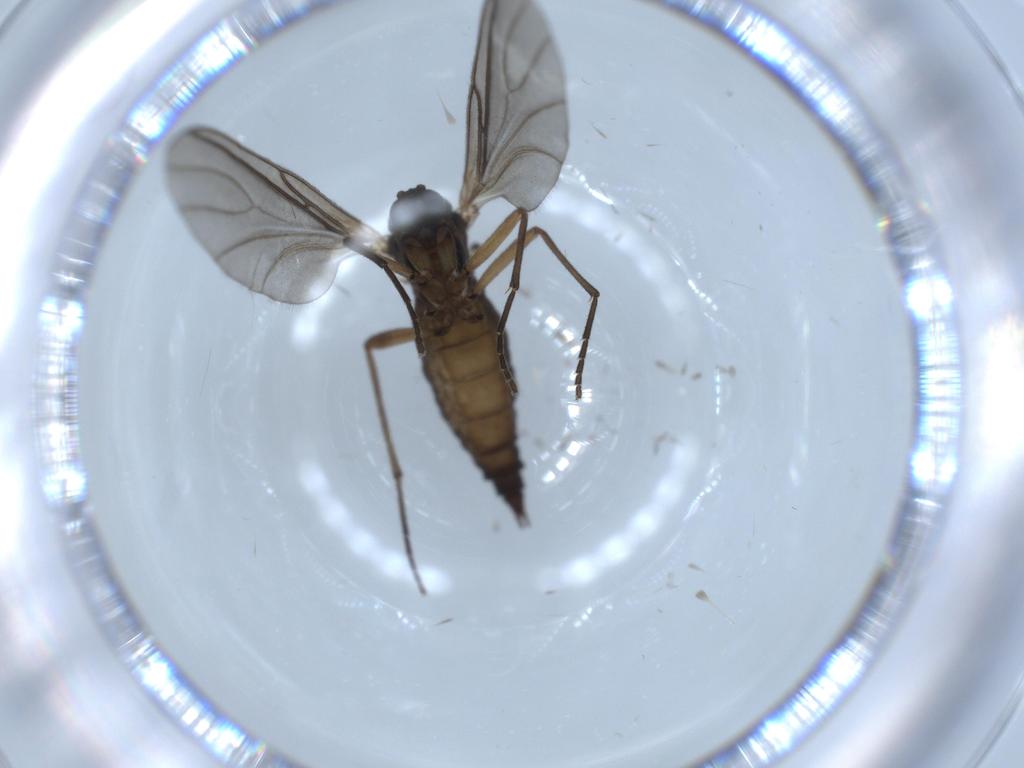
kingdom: Animalia
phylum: Arthropoda
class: Insecta
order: Diptera
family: Sciaridae
